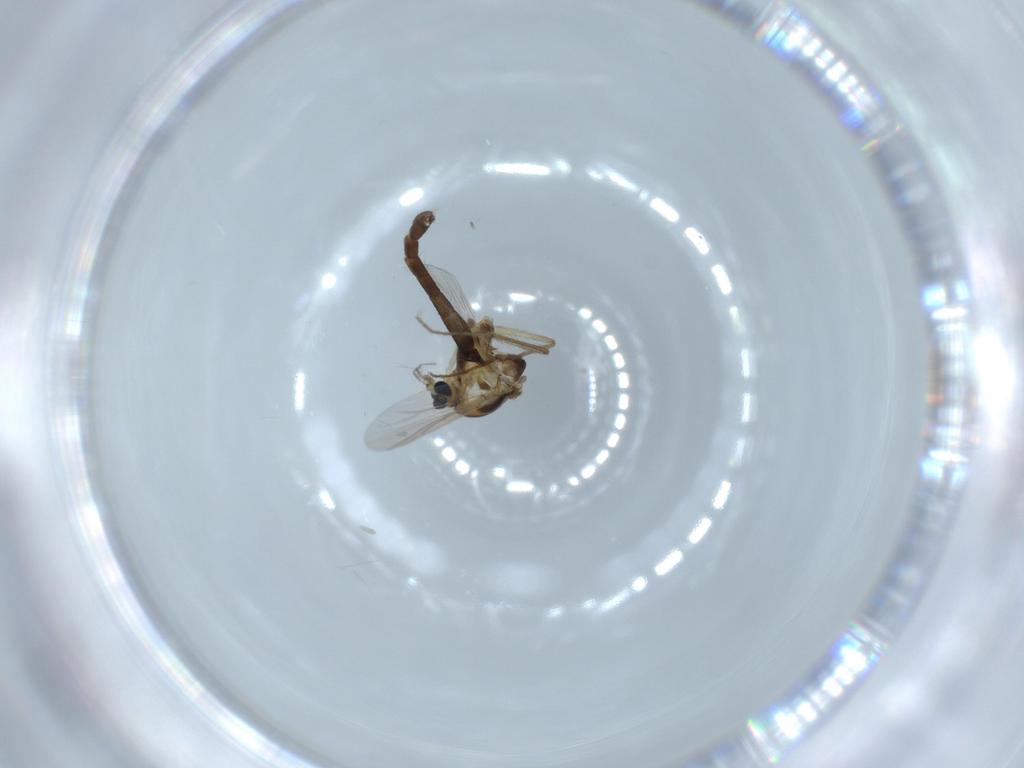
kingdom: Animalia
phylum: Arthropoda
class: Insecta
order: Diptera
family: Chironomidae
